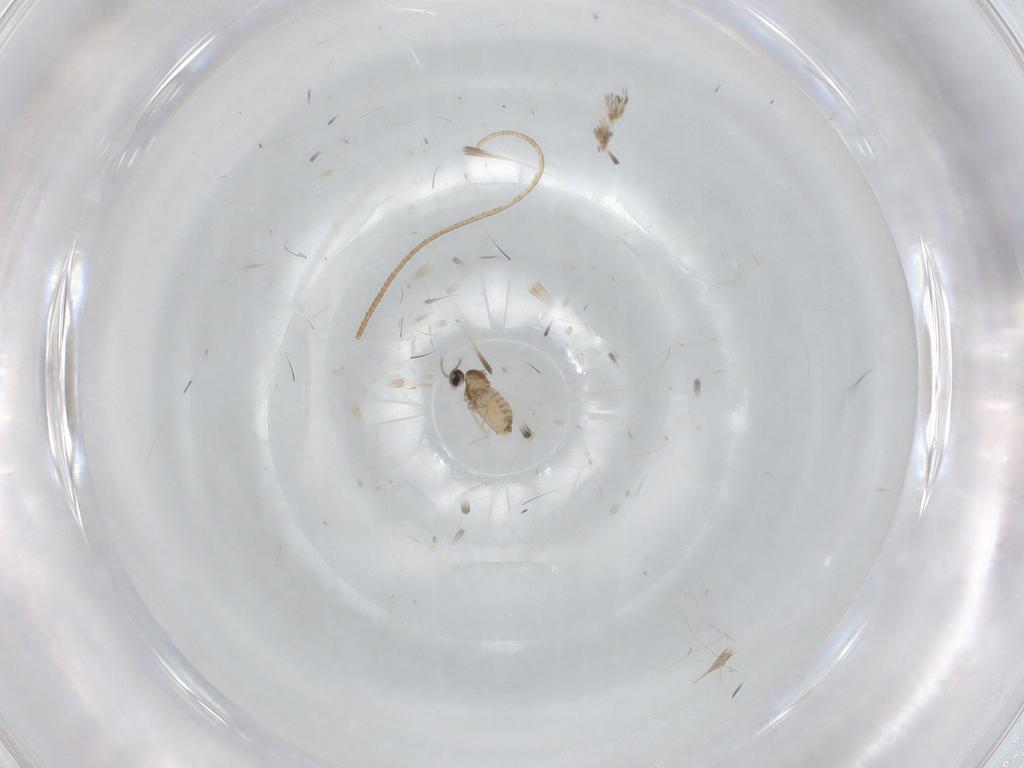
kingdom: Animalia
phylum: Arthropoda
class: Insecta
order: Diptera
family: Cecidomyiidae
